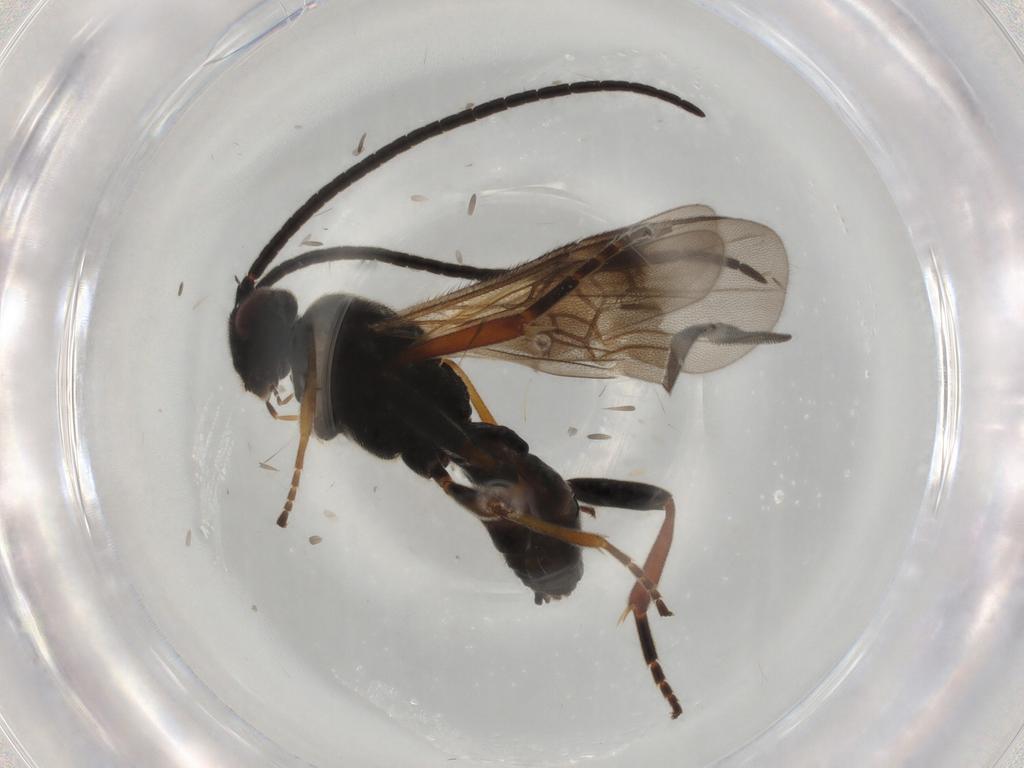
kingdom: Animalia
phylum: Arthropoda
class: Insecta
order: Hymenoptera
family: Braconidae
